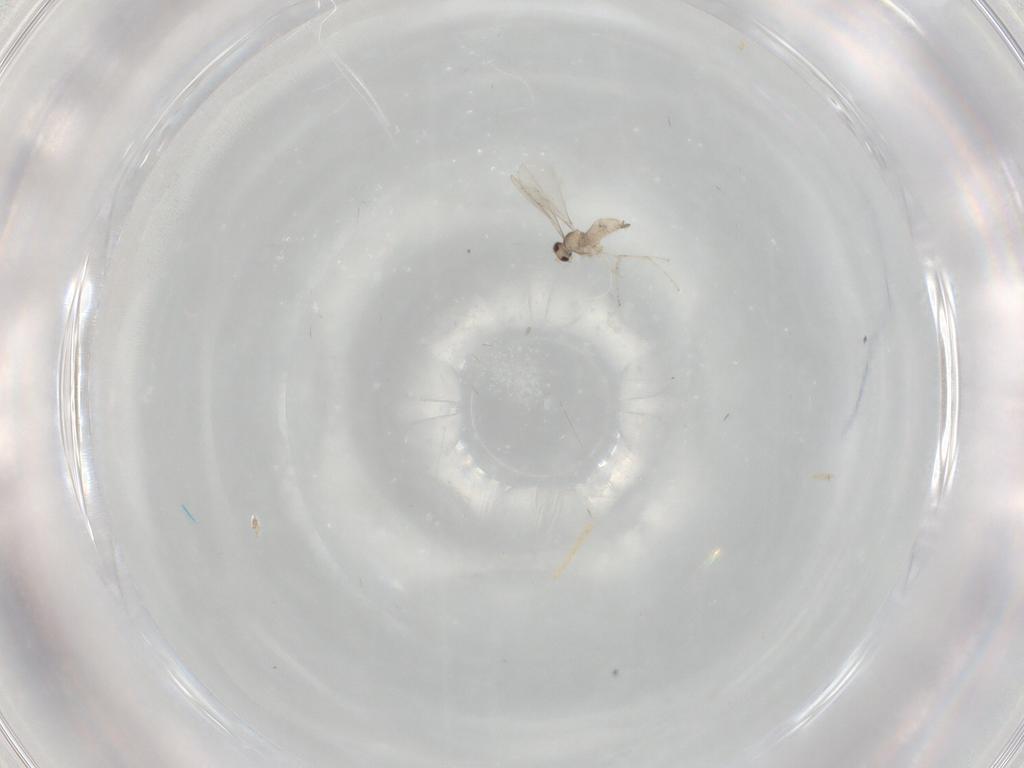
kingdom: Animalia
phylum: Arthropoda
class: Insecta
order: Diptera
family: Cecidomyiidae
